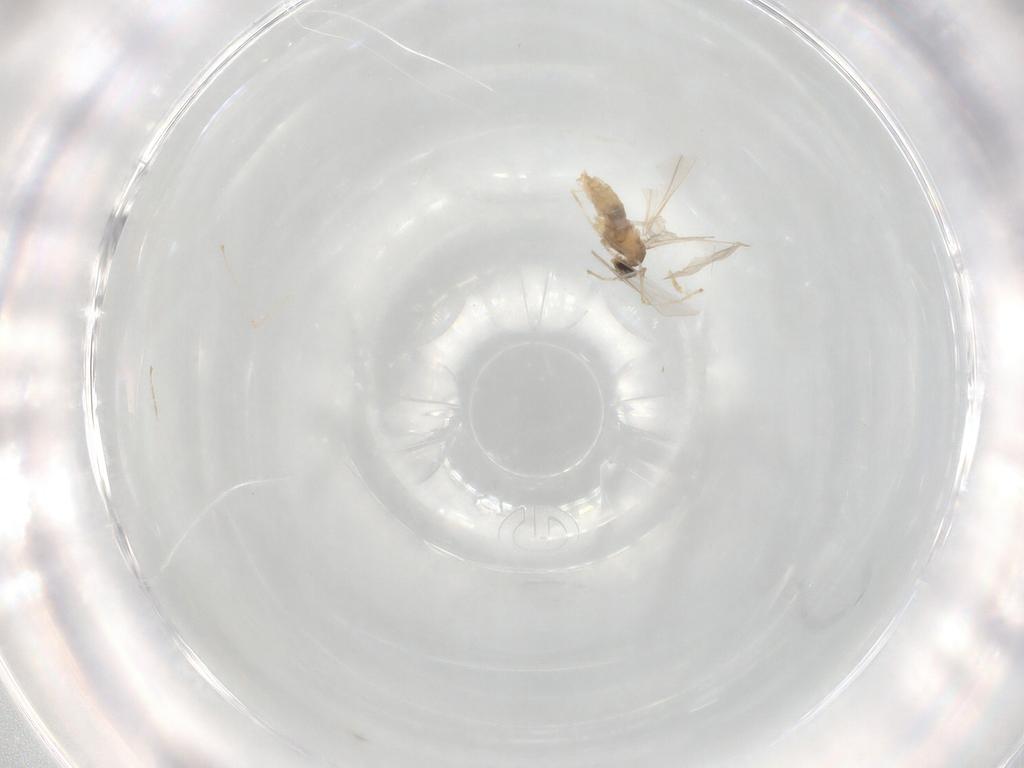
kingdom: Animalia
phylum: Arthropoda
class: Insecta
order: Diptera
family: Cecidomyiidae
